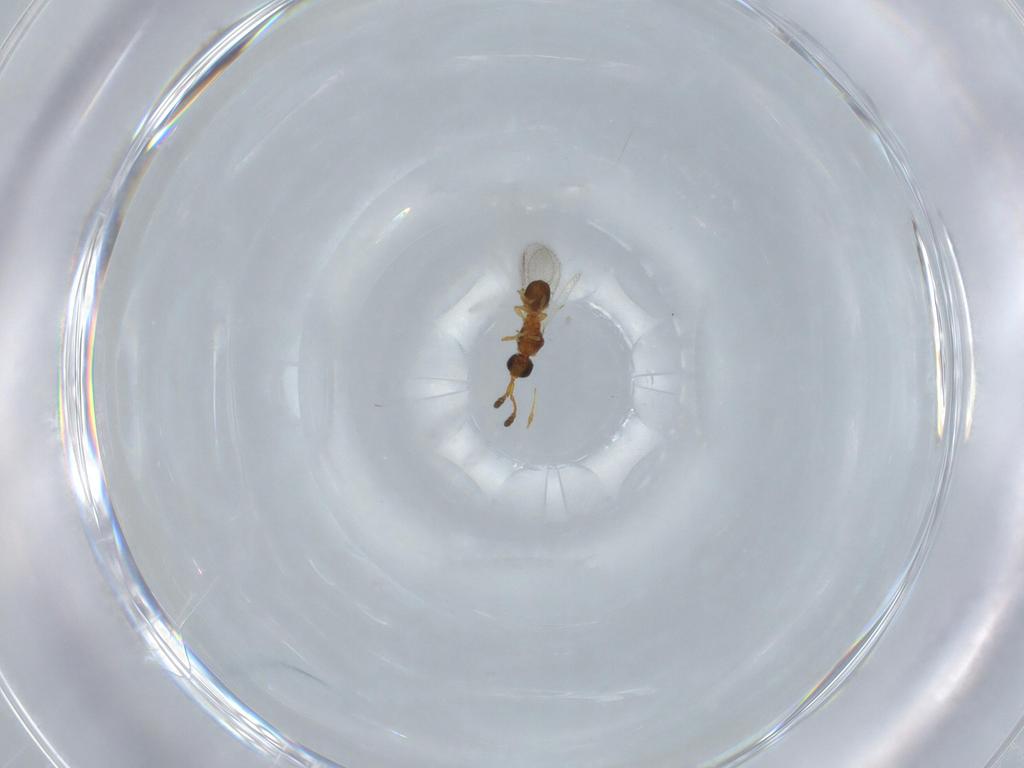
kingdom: Animalia
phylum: Arthropoda
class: Insecta
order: Hymenoptera
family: Diapriidae
